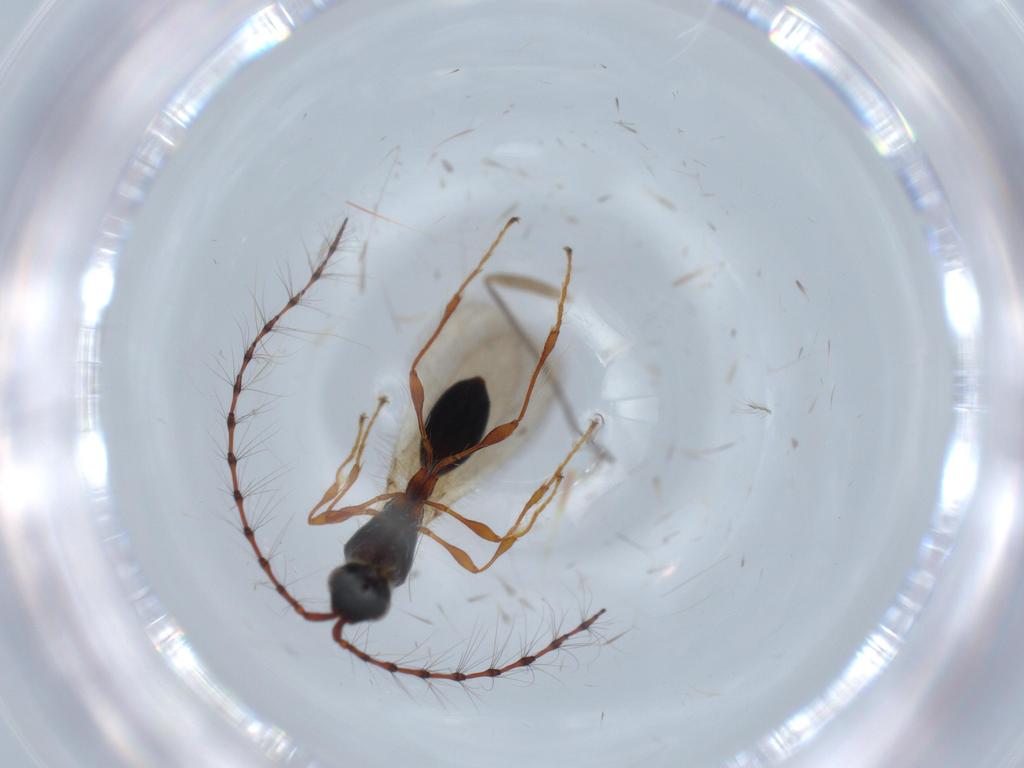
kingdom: Animalia
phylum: Arthropoda
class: Insecta
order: Hymenoptera
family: Diapriidae
